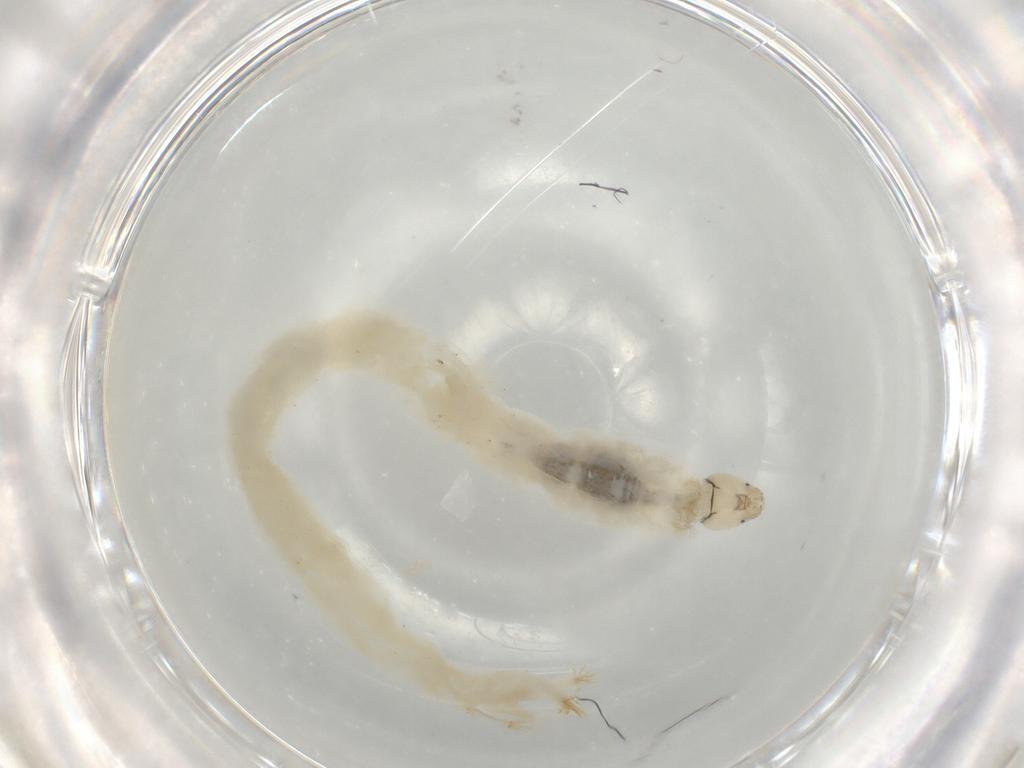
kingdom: Animalia
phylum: Arthropoda
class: Insecta
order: Diptera
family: Chironomidae
